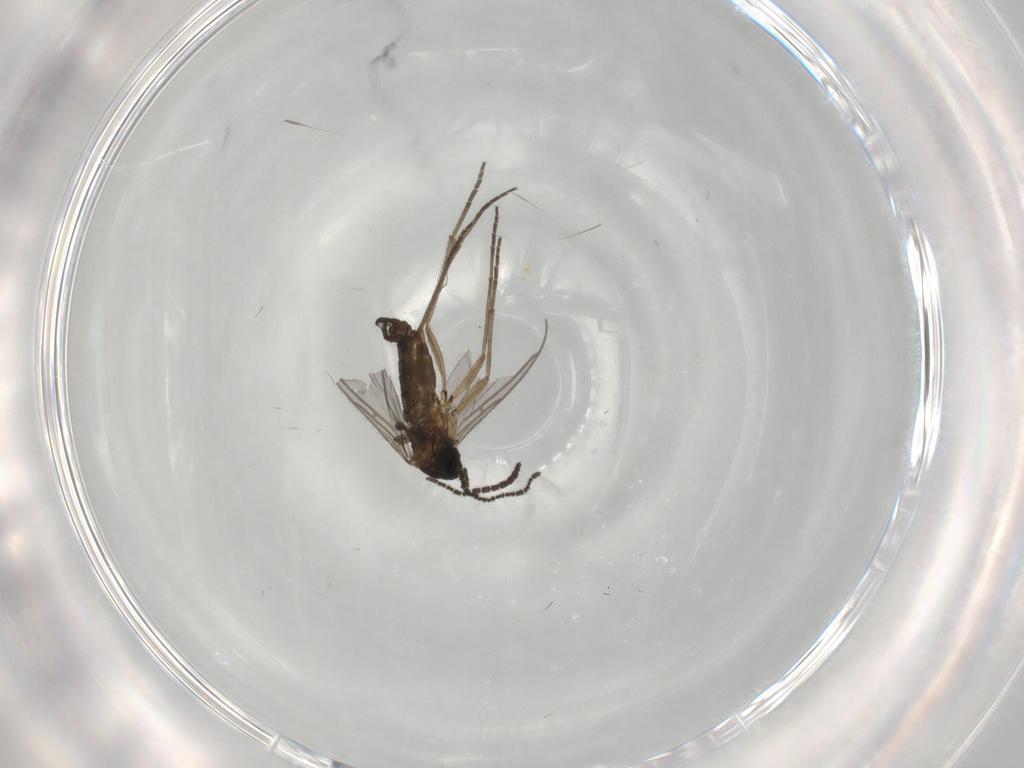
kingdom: Animalia
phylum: Arthropoda
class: Insecta
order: Diptera
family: Sciaridae
